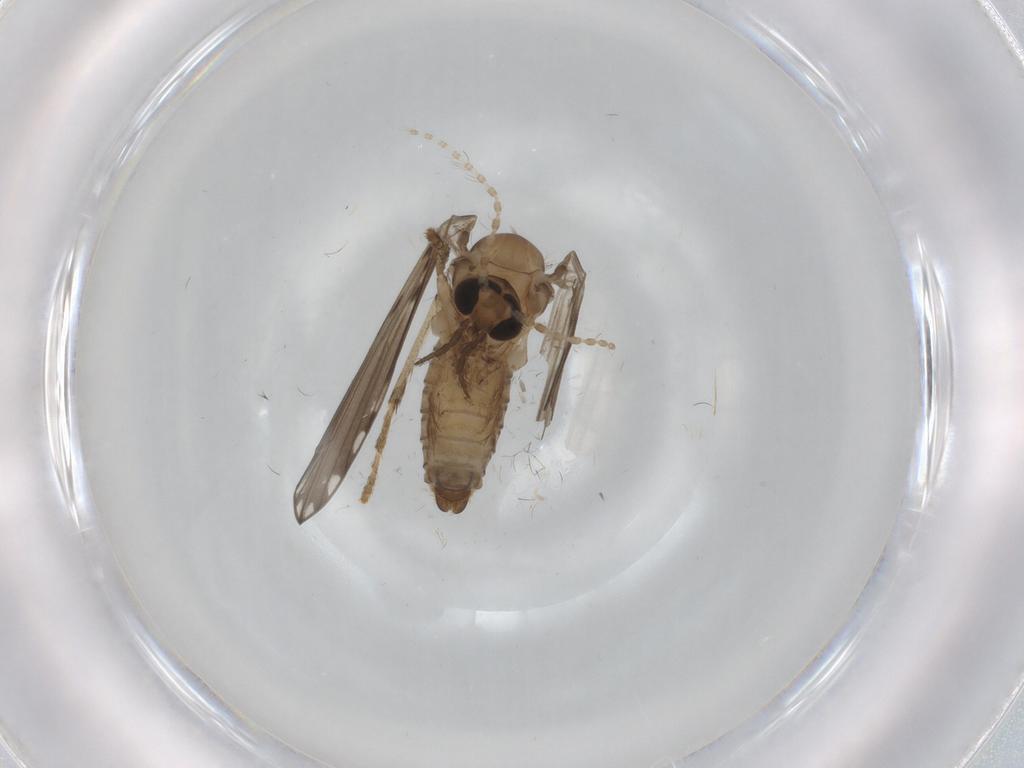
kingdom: Animalia
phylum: Arthropoda
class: Insecta
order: Diptera
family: Psychodidae
